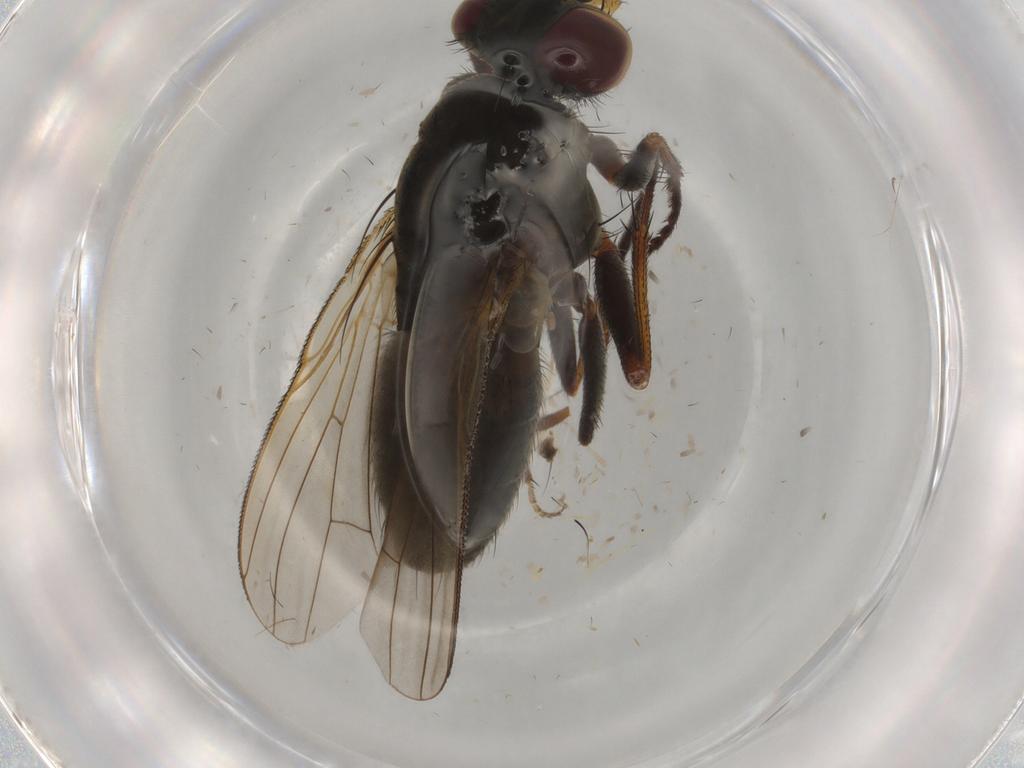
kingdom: Animalia
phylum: Arthropoda
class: Insecta
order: Diptera
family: Muscidae
